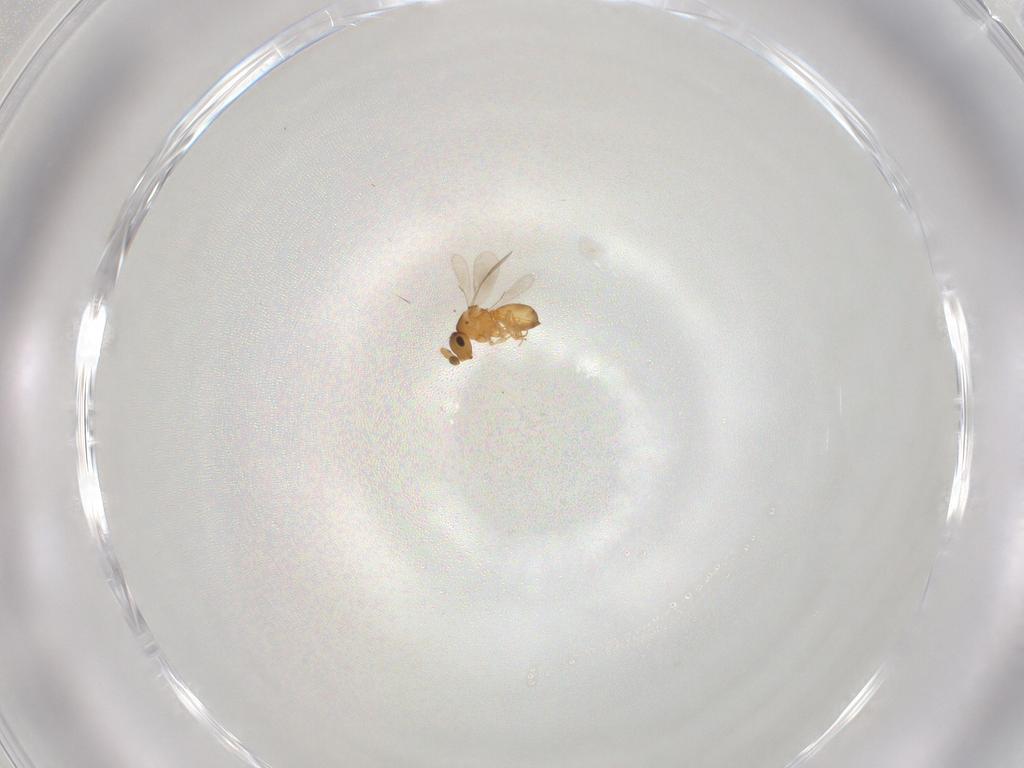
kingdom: Animalia
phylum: Arthropoda
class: Insecta
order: Hymenoptera
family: Scelionidae
